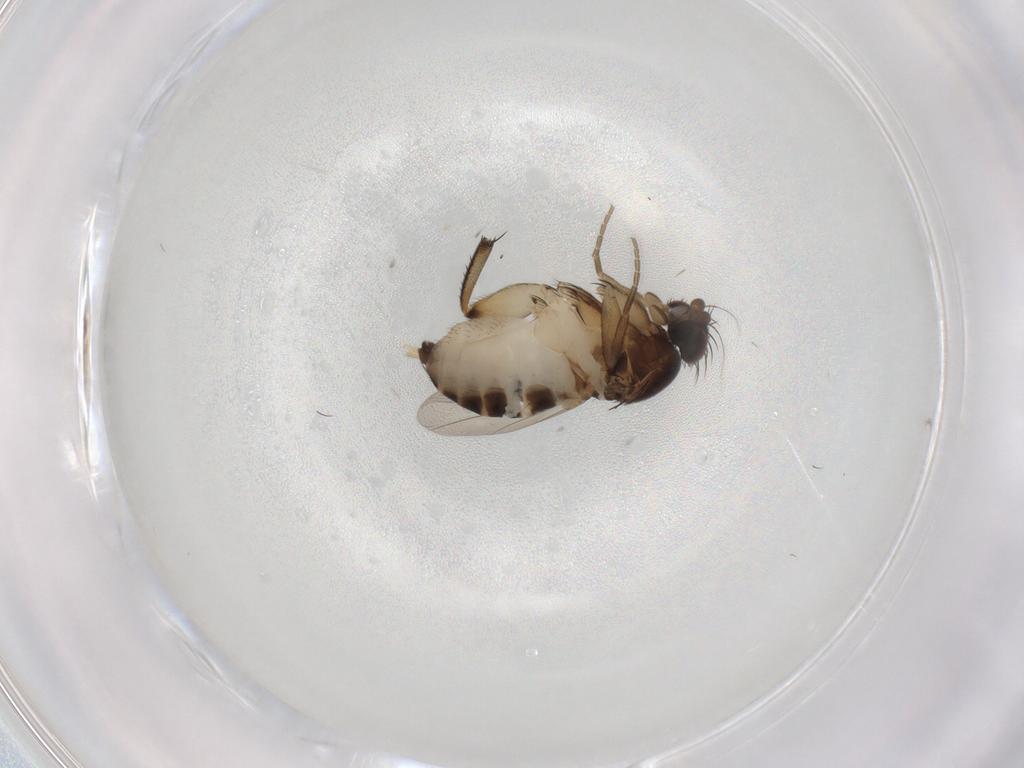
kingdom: Animalia
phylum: Arthropoda
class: Insecta
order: Diptera
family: Phoridae
